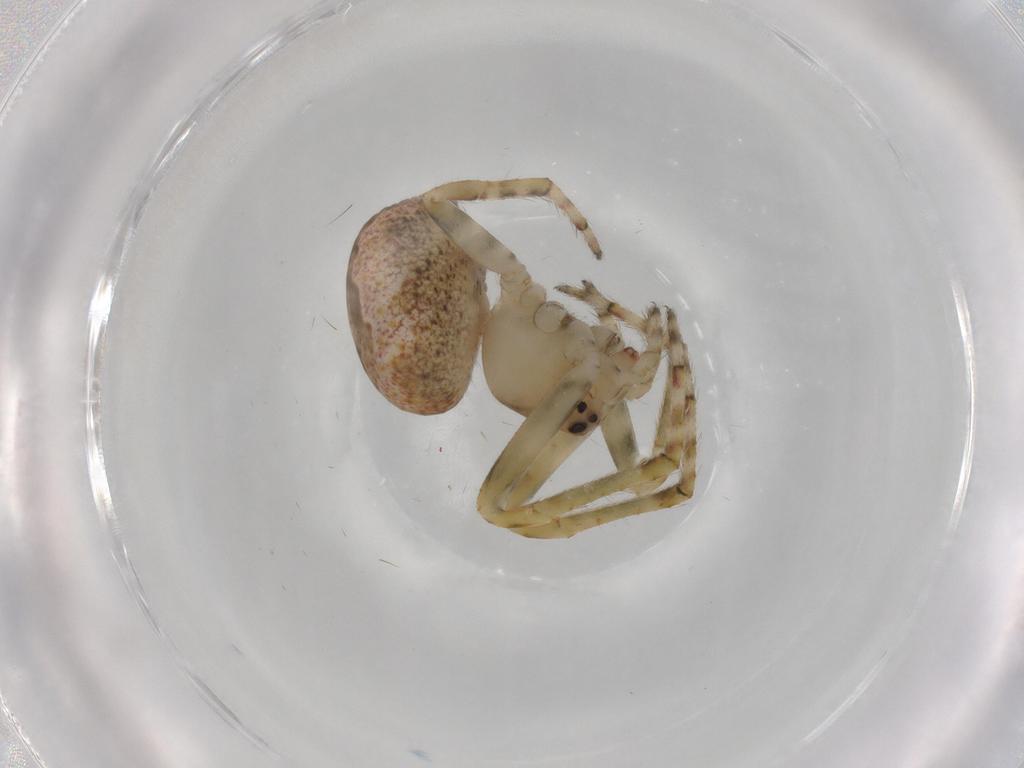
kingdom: Animalia
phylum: Arthropoda
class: Arachnida
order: Araneae
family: Araneidae
